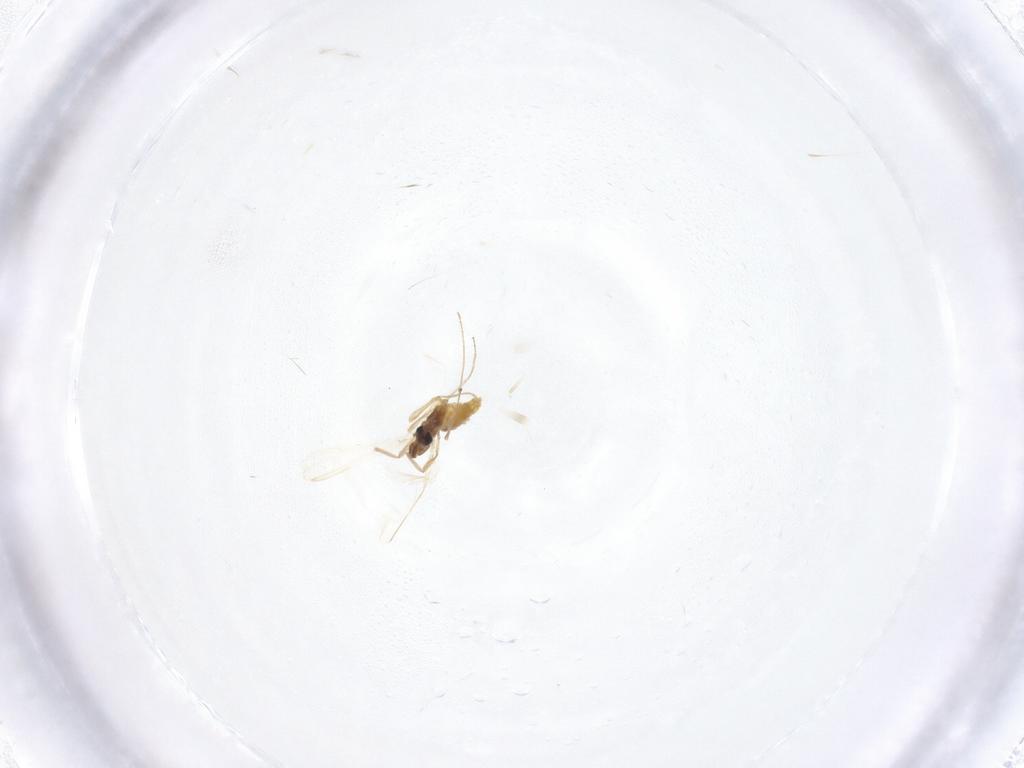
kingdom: Animalia
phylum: Arthropoda
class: Insecta
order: Diptera
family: Chironomidae
